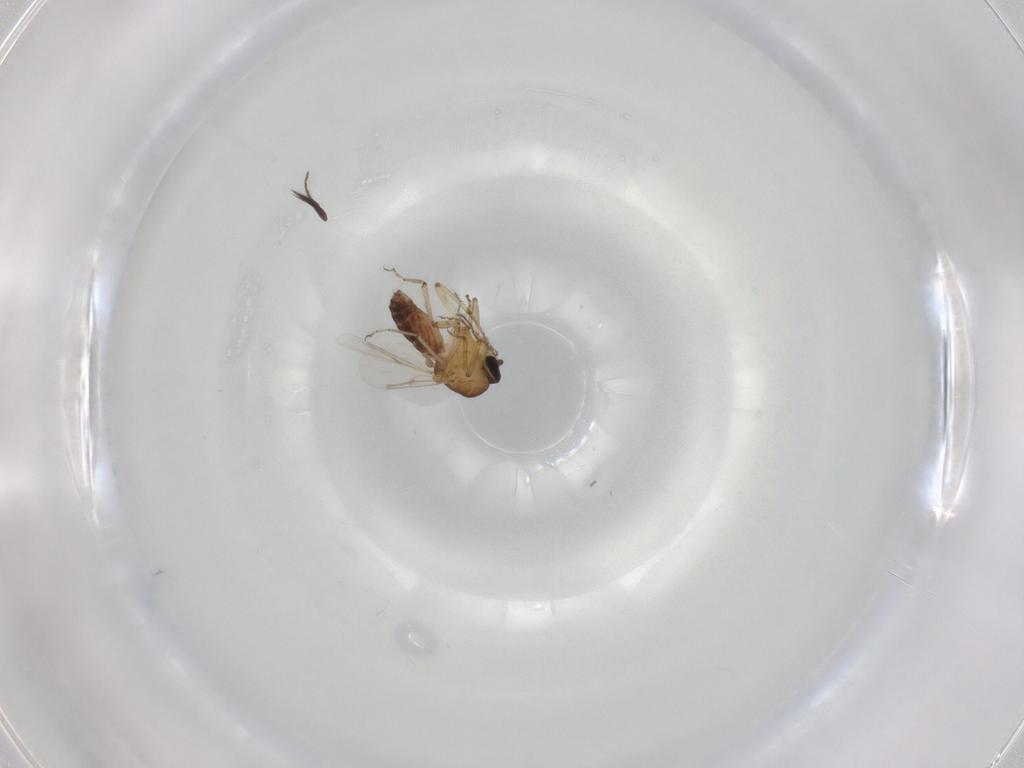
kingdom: Animalia
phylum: Arthropoda
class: Insecta
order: Diptera
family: Ceratopogonidae
